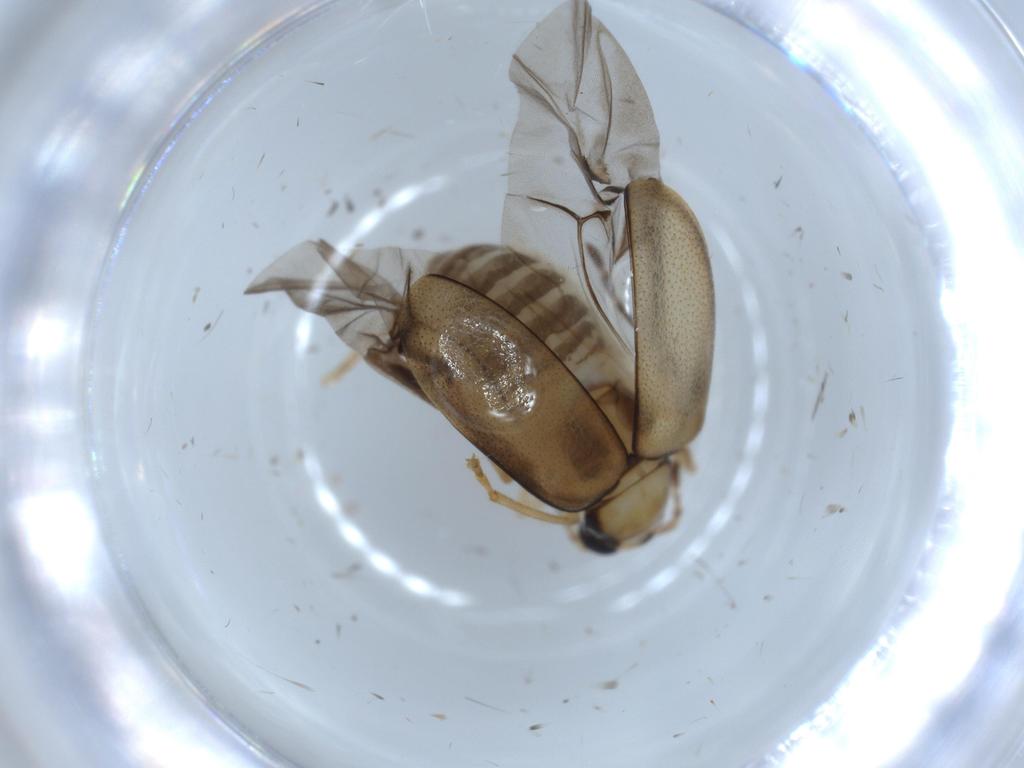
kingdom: Animalia
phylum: Arthropoda
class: Insecta
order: Coleoptera
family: Chrysomelidae
